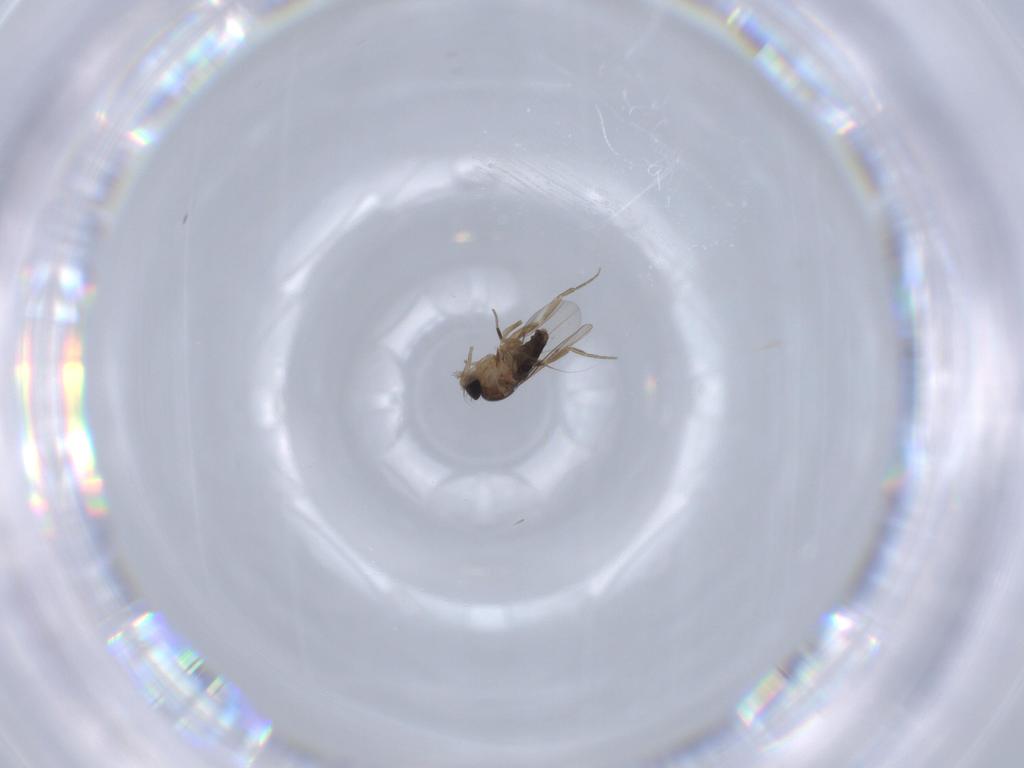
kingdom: Animalia
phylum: Arthropoda
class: Insecta
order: Diptera
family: Phoridae
